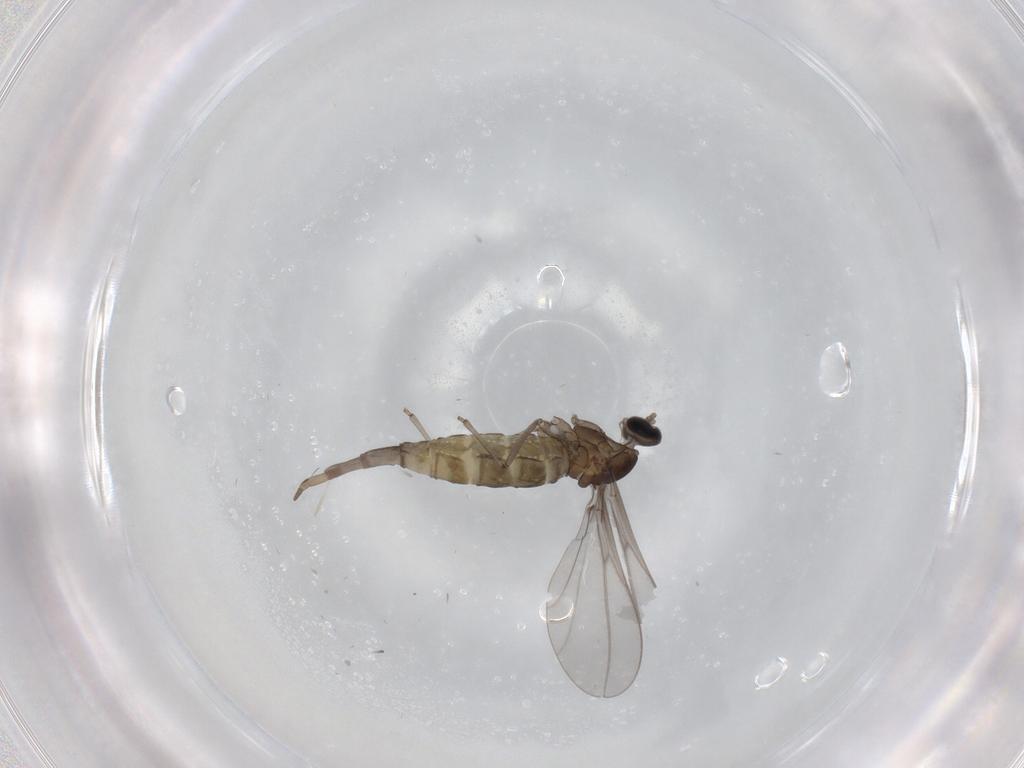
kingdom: Animalia
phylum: Arthropoda
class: Insecta
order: Diptera
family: Cecidomyiidae
